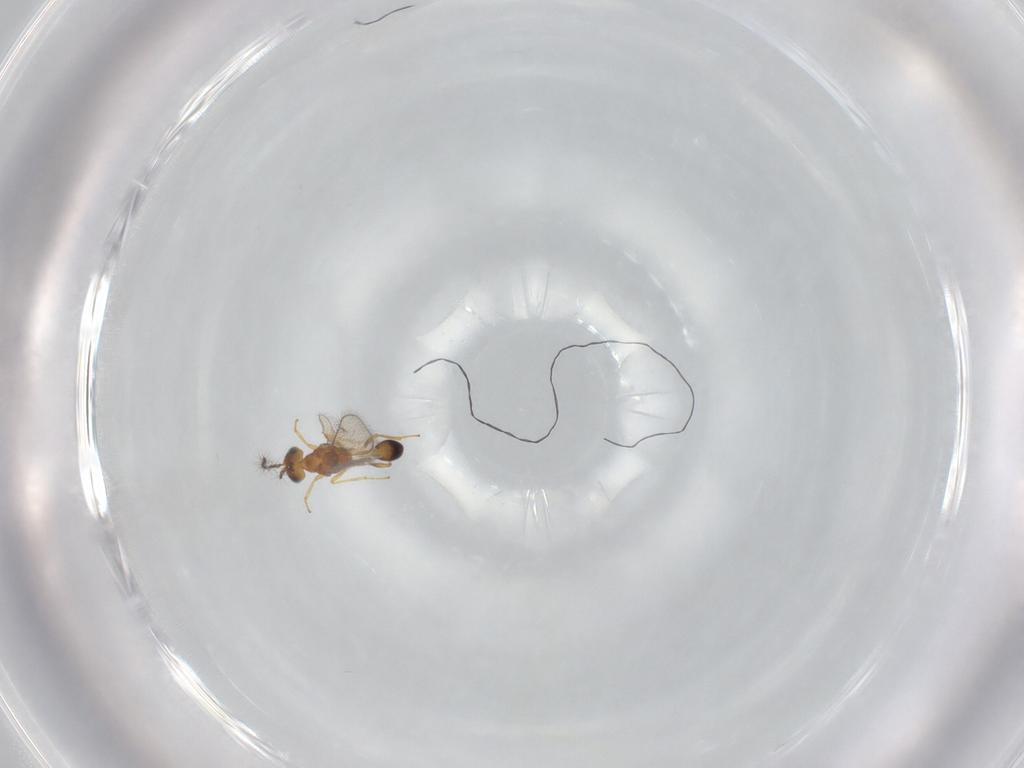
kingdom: Animalia
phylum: Arthropoda
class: Insecta
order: Hymenoptera
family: Diparidae
